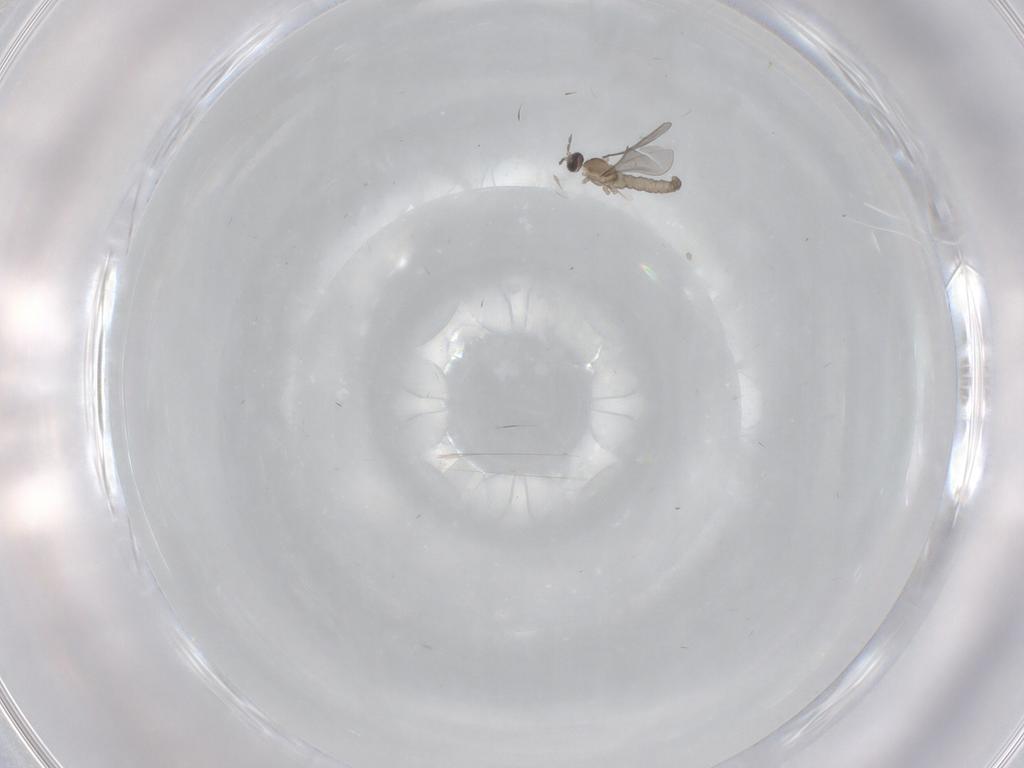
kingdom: Animalia
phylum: Arthropoda
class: Insecta
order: Diptera
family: Cecidomyiidae
